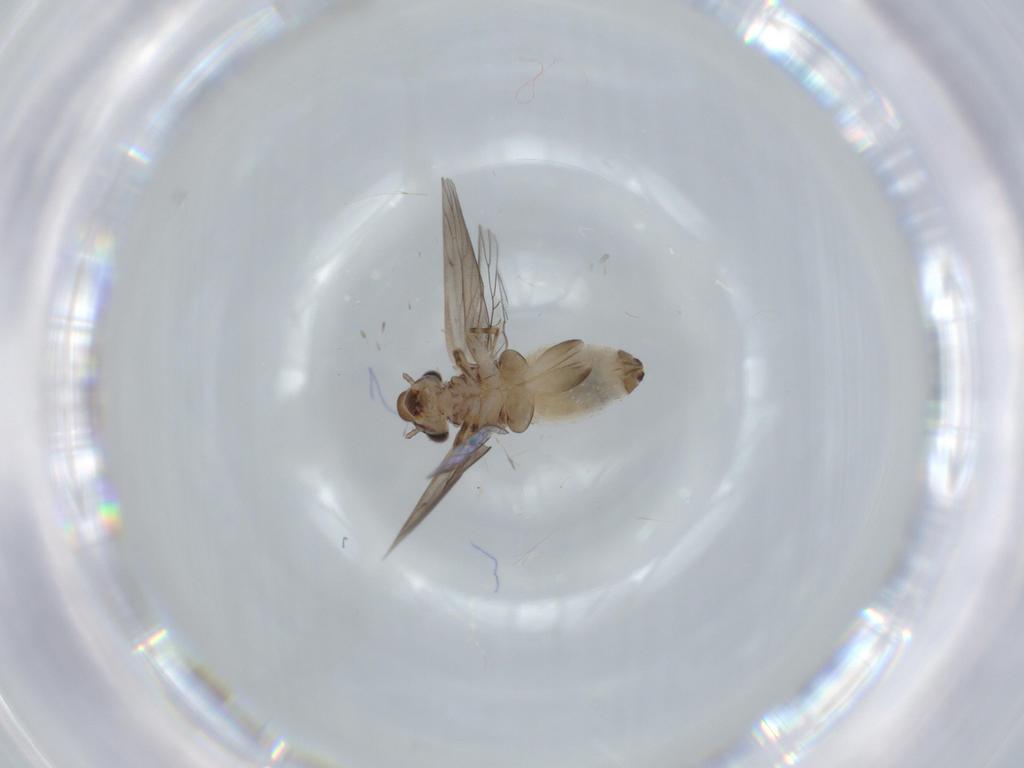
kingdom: Animalia
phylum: Arthropoda
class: Insecta
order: Psocodea
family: Lepidopsocidae
